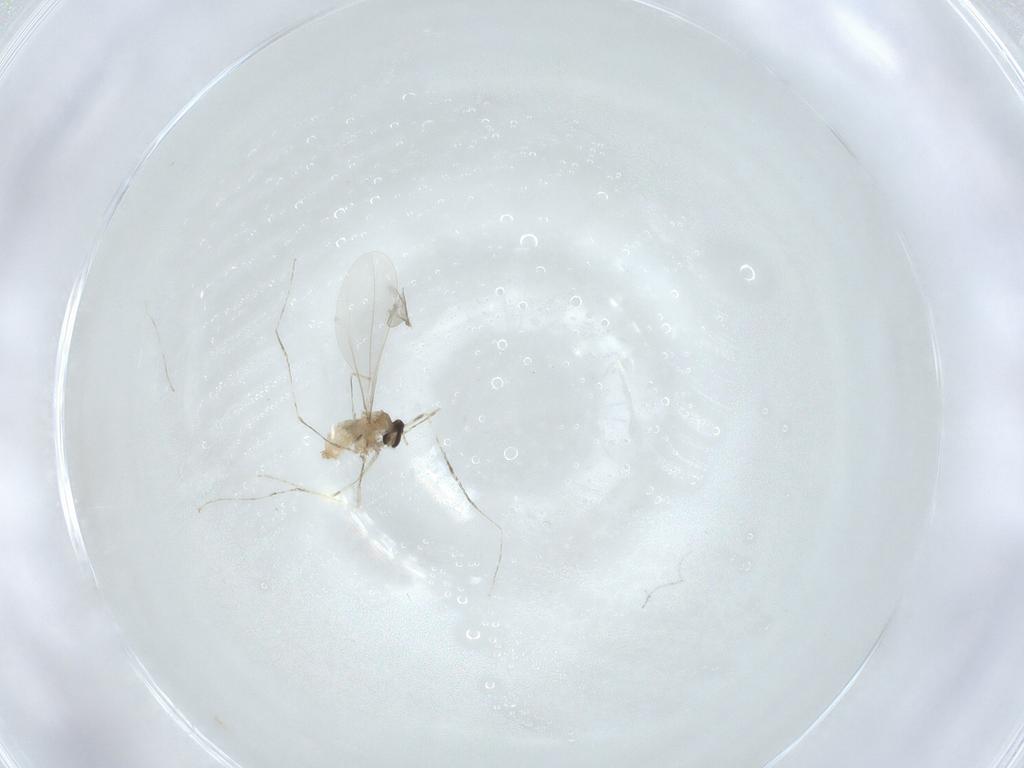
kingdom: Animalia
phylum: Arthropoda
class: Insecta
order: Diptera
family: Cecidomyiidae
